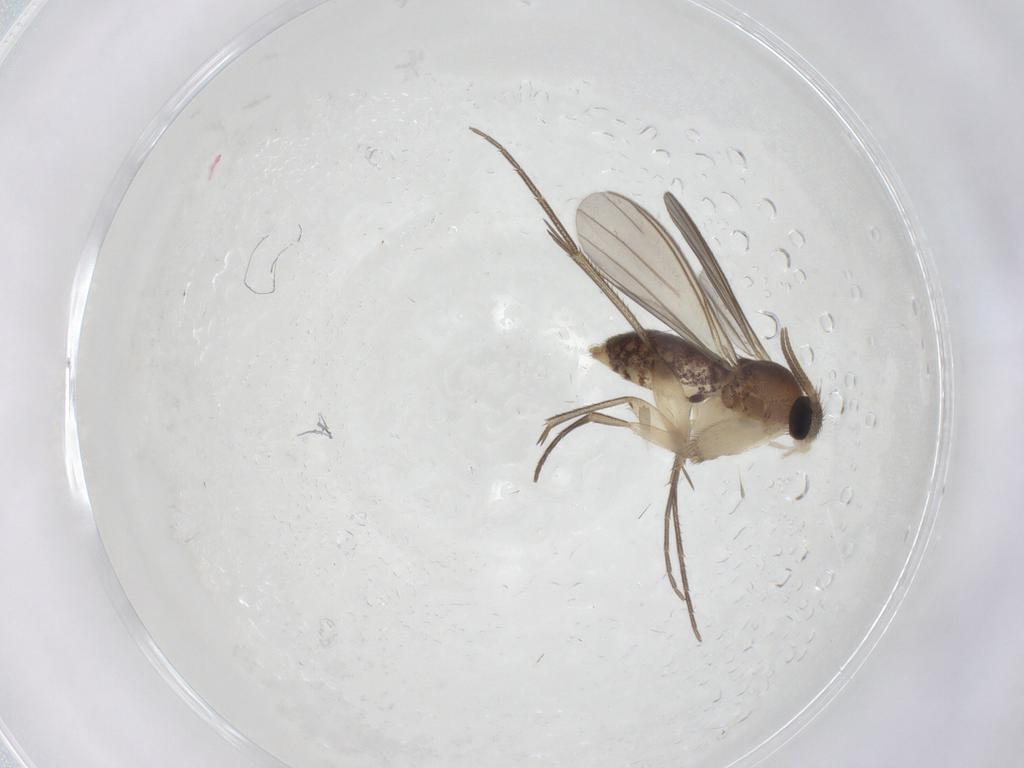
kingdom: Animalia
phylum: Arthropoda
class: Insecta
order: Diptera
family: Mycetophilidae
